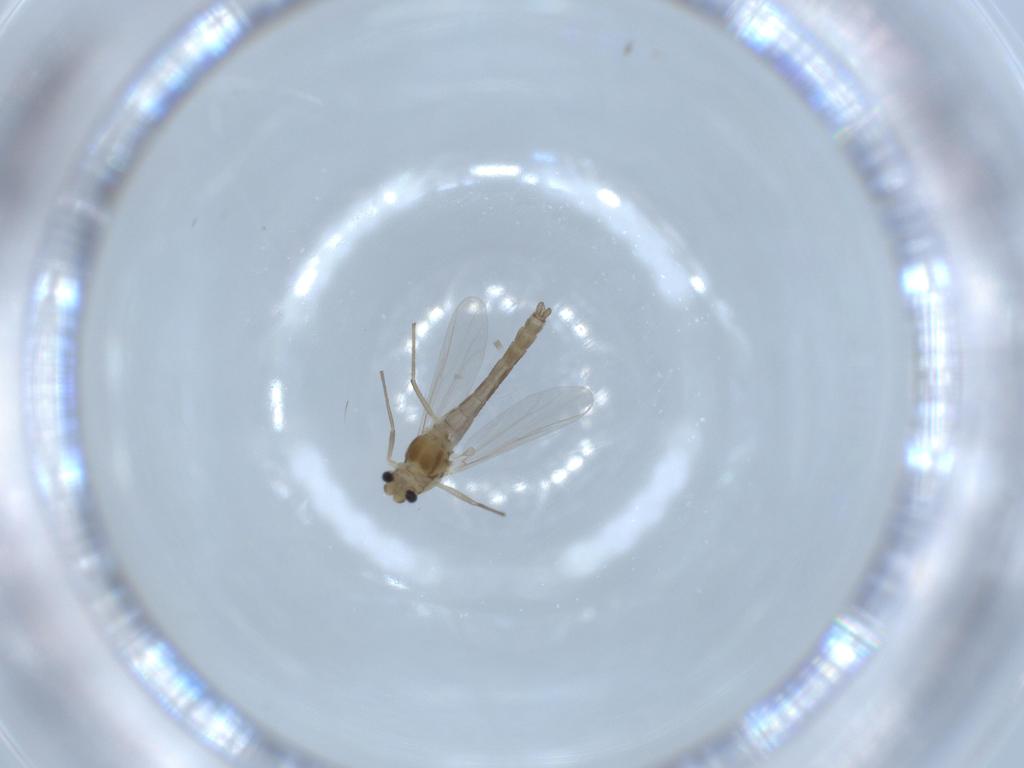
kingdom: Animalia
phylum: Arthropoda
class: Insecta
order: Diptera
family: Chironomidae
